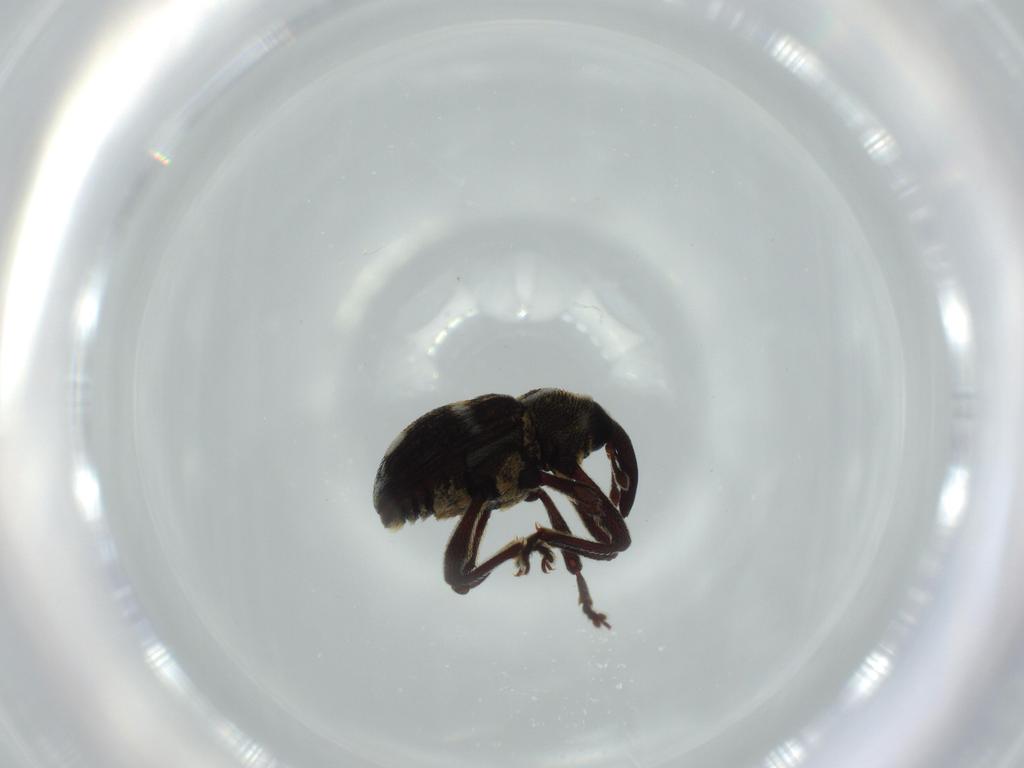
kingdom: Animalia
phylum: Arthropoda
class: Insecta
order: Coleoptera
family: Curculionidae
